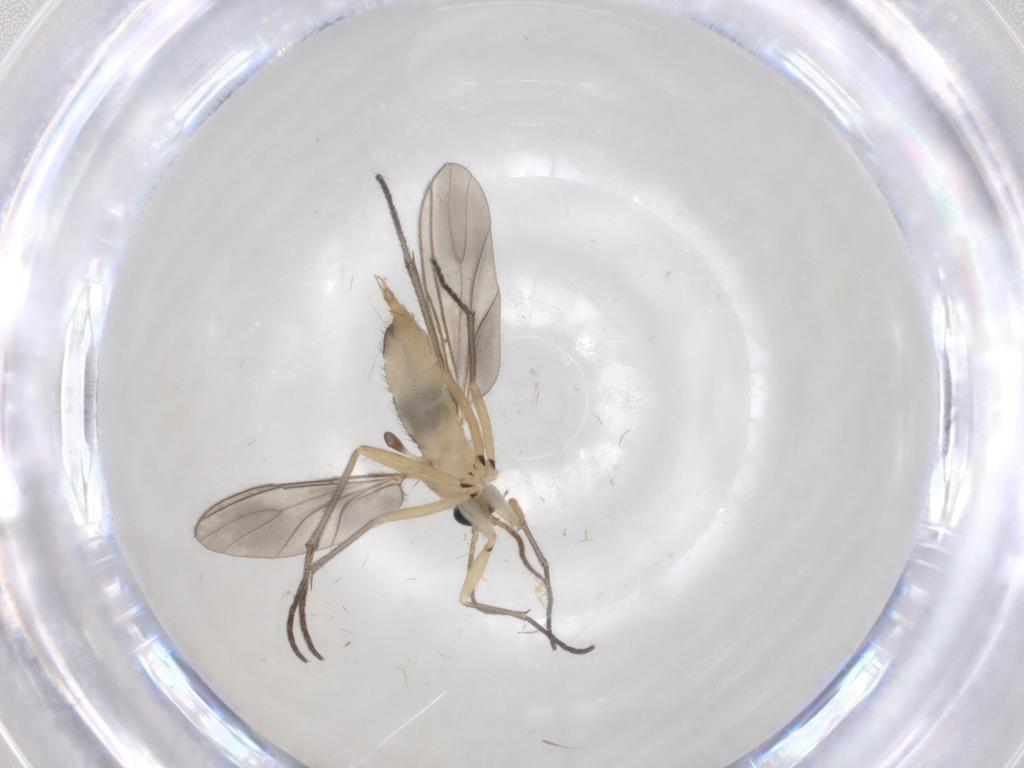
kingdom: Animalia
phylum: Arthropoda
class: Insecta
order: Diptera
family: Sciaridae
